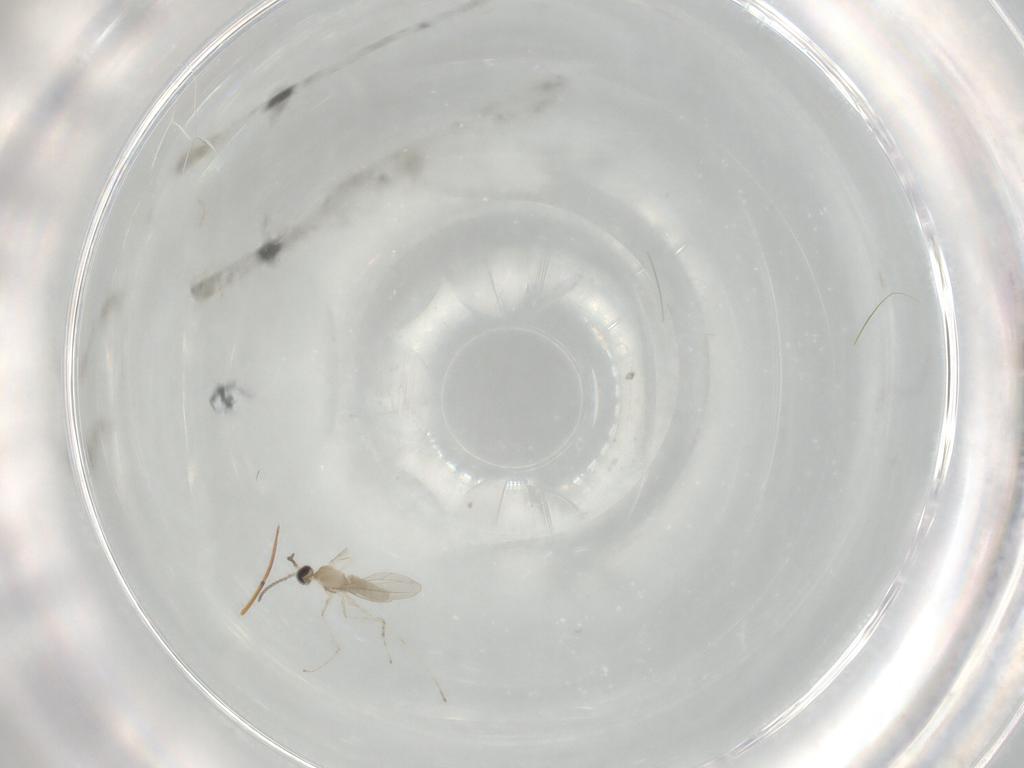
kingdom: Animalia
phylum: Arthropoda
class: Insecta
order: Diptera
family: Chironomidae
